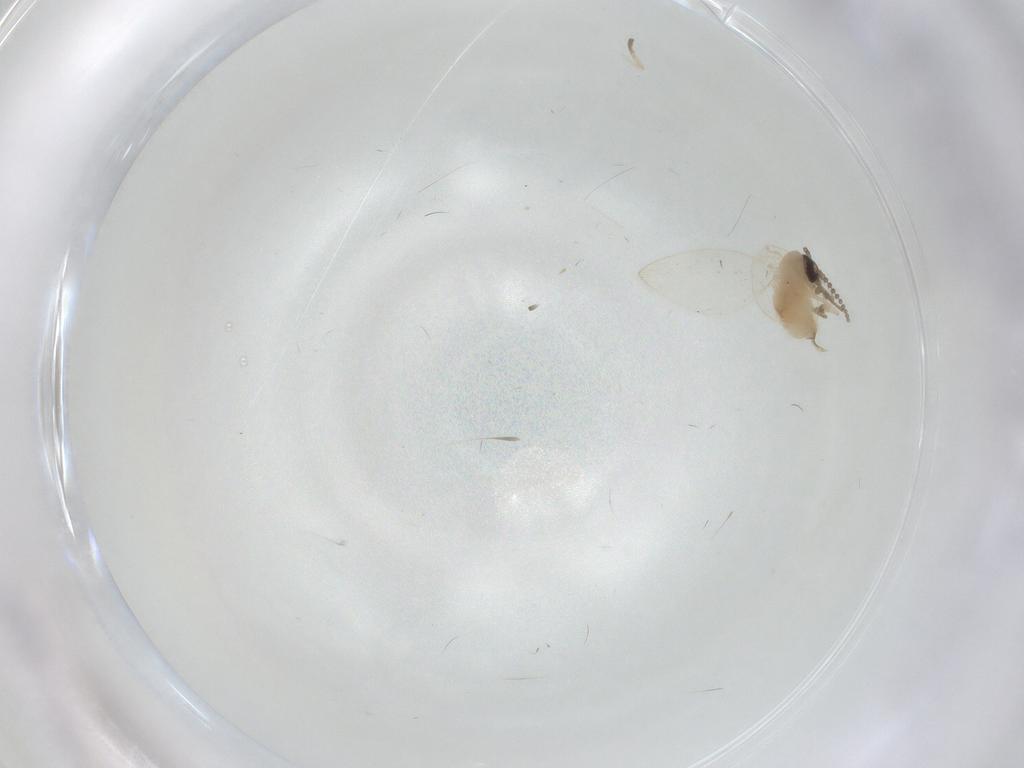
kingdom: Animalia
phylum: Arthropoda
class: Insecta
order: Diptera
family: Psychodidae
